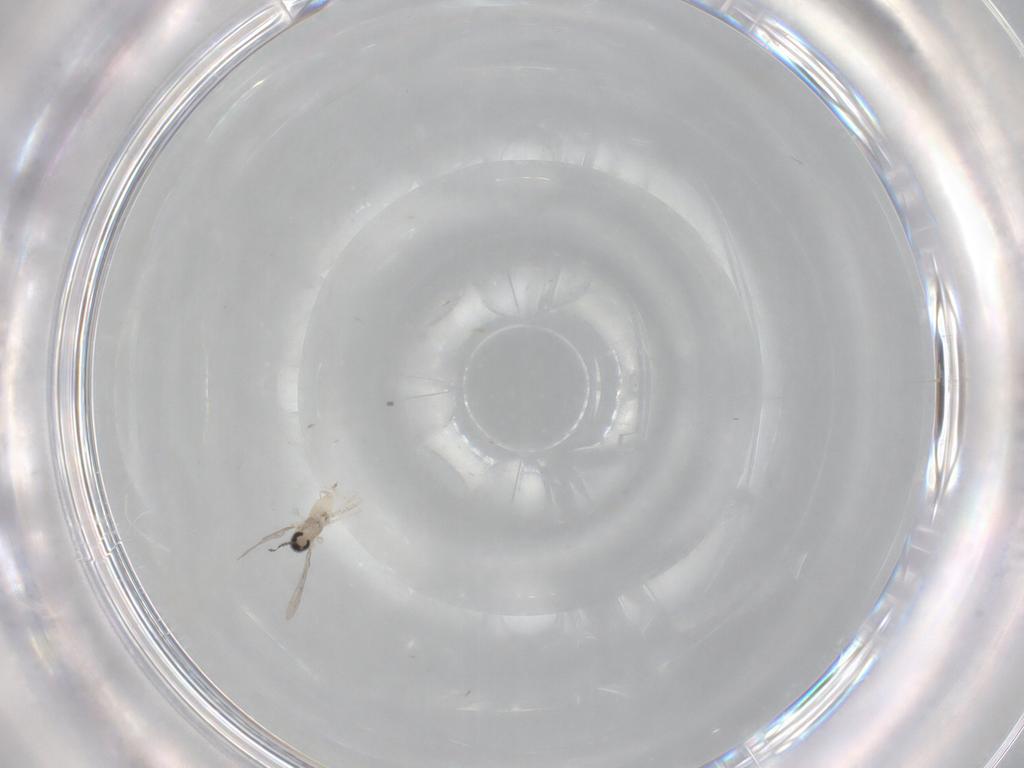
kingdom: Animalia
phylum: Arthropoda
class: Insecta
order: Diptera
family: Cecidomyiidae
